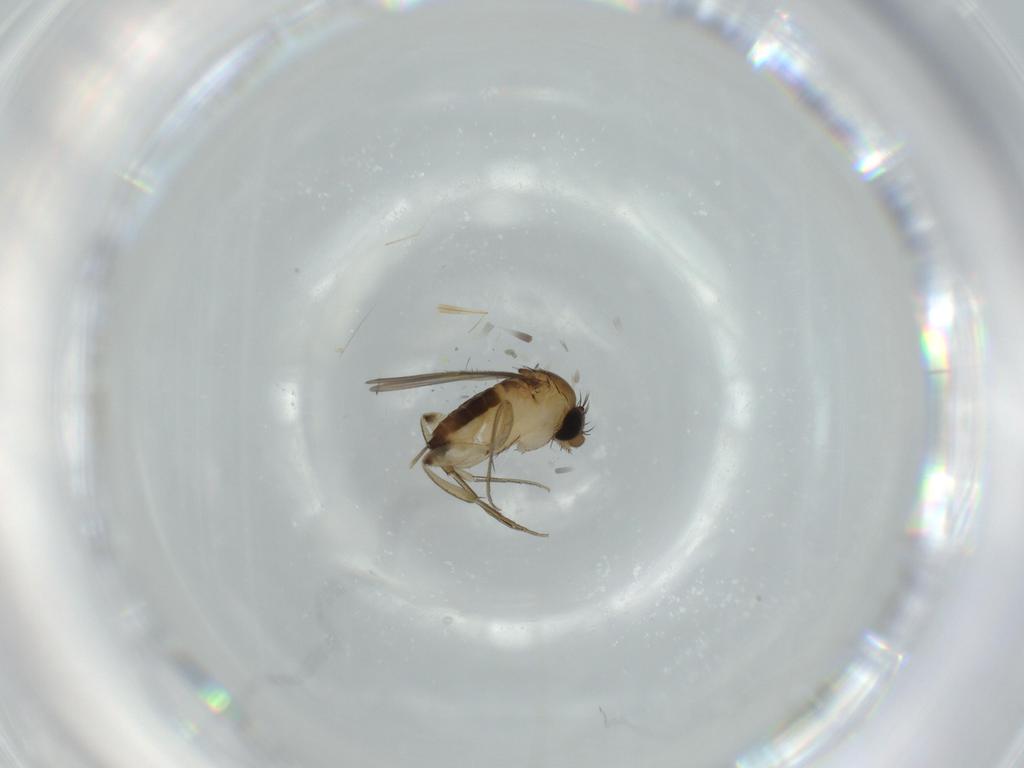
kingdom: Animalia
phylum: Arthropoda
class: Insecta
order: Diptera
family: Phoridae
